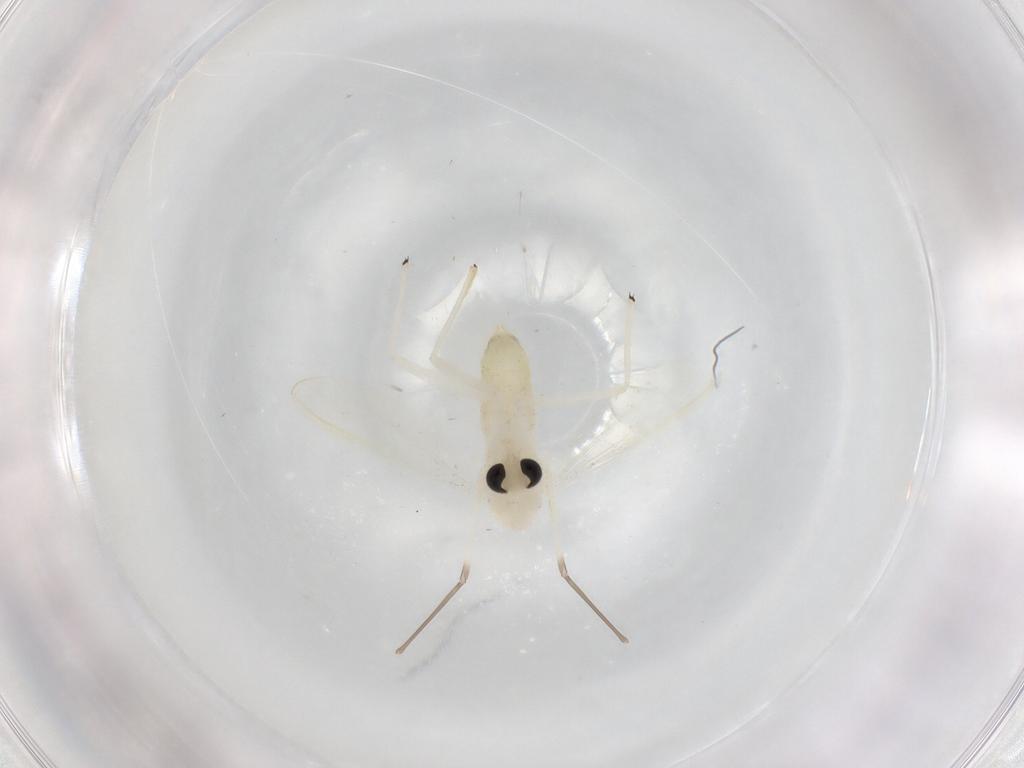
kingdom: Animalia
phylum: Arthropoda
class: Insecta
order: Diptera
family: Chironomidae
